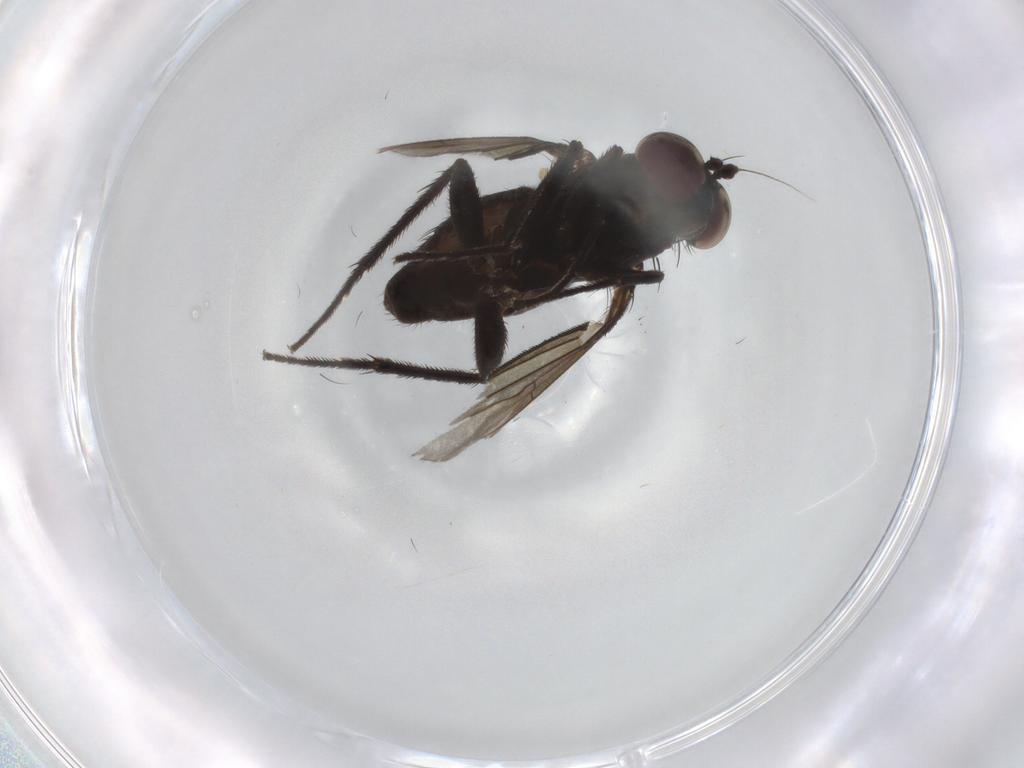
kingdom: Animalia
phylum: Arthropoda
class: Insecta
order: Diptera
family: Dolichopodidae
